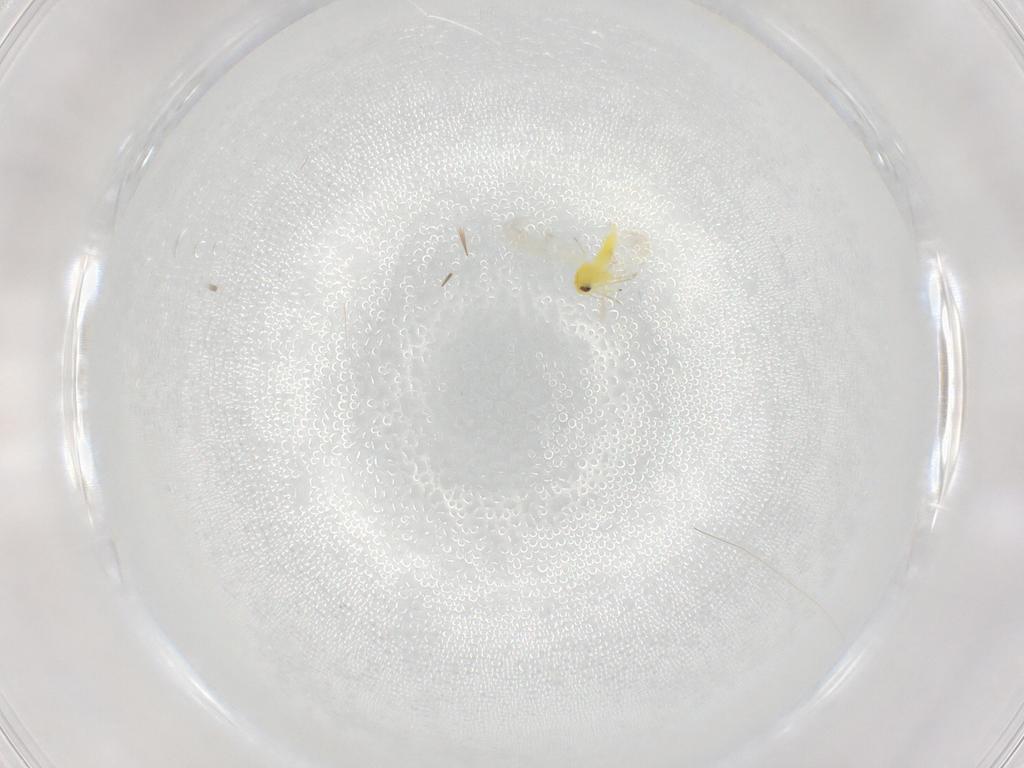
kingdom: Animalia
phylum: Arthropoda
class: Insecta
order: Hemiptera
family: Aleyrodidae
